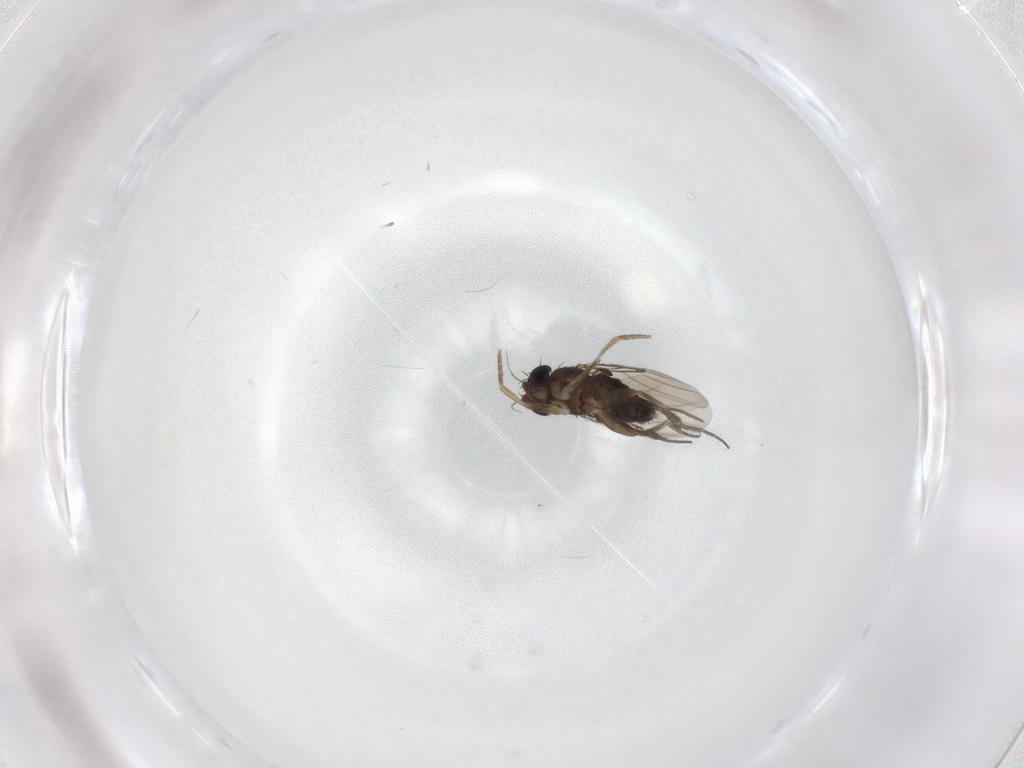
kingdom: Animalia
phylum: Arthropoda
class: Insecta
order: Diptera
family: Phoridae
